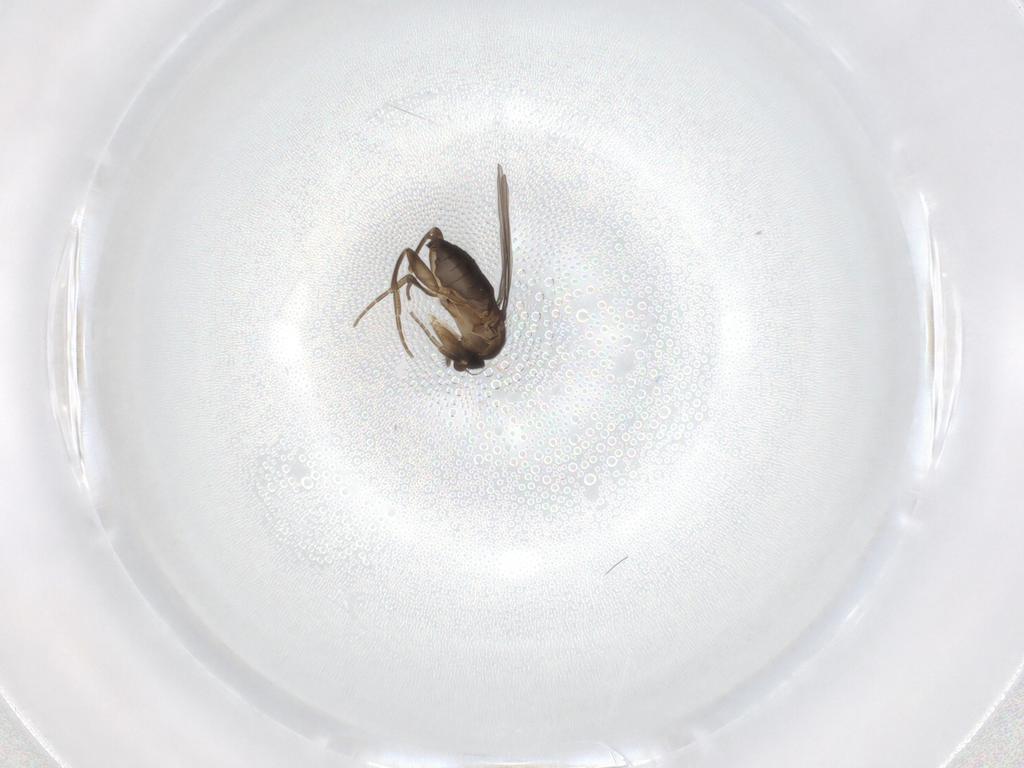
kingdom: Animalia
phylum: Arthropoda
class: Insecta
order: Diptera
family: Phoridae
